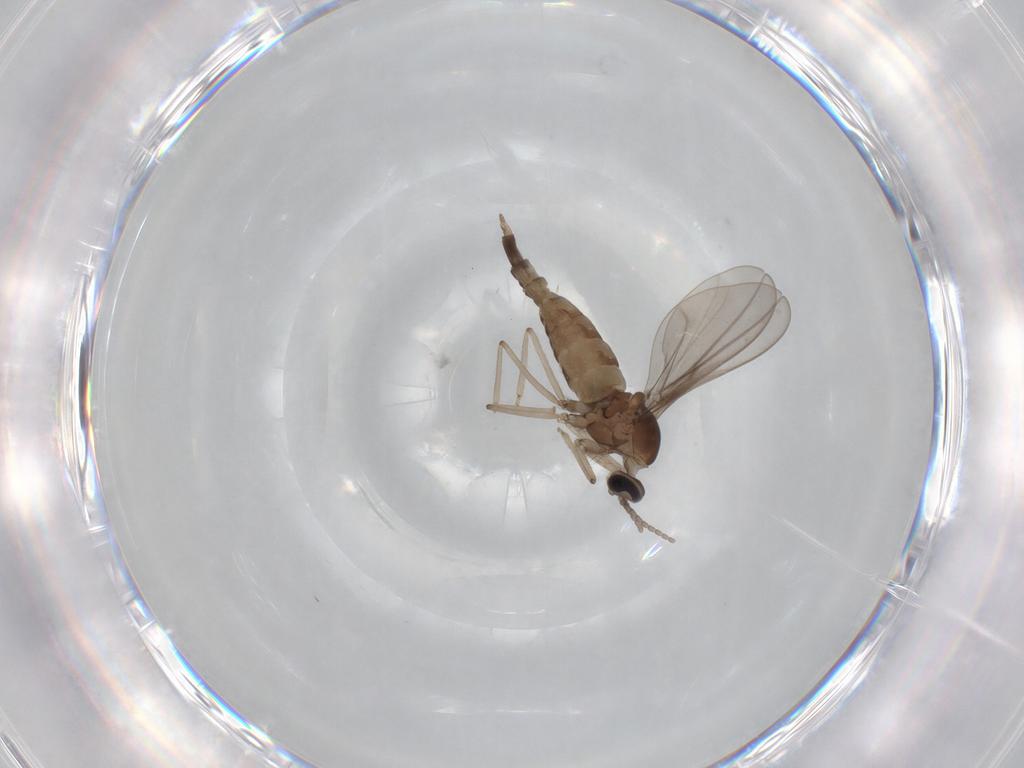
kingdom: Animalia
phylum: Arthropoda
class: Insecta
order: Diptera
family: Cecidomyiidae
